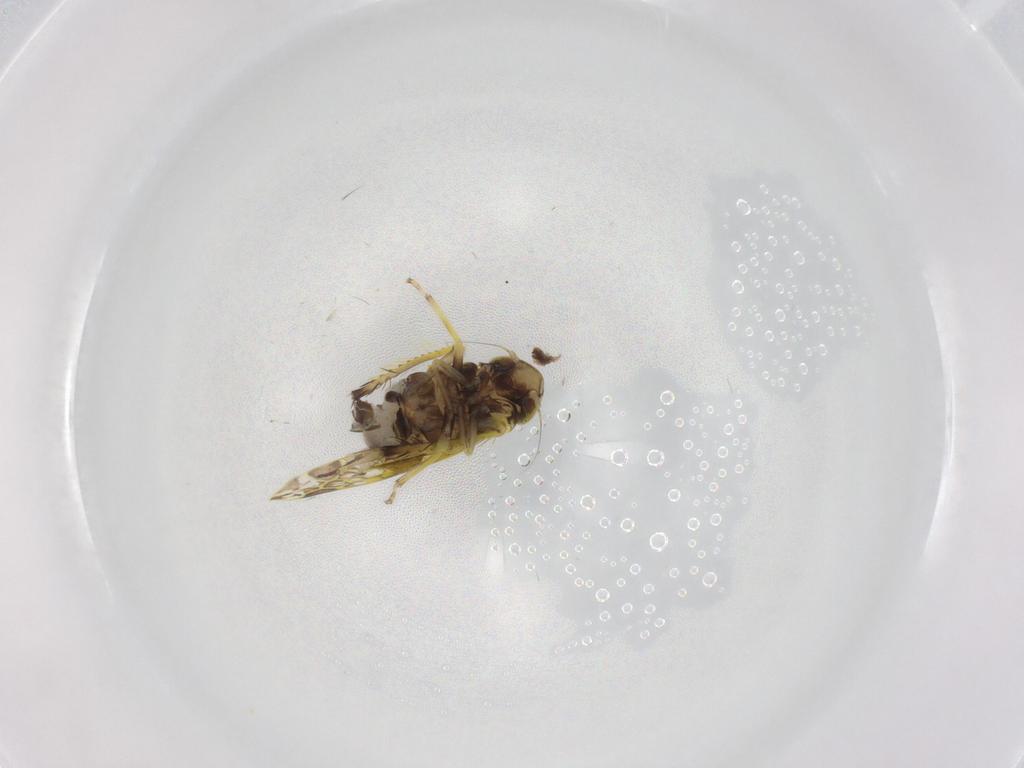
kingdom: Animalia
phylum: Arthropoda
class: Insecta
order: Hemiptera
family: Cicadellidae
